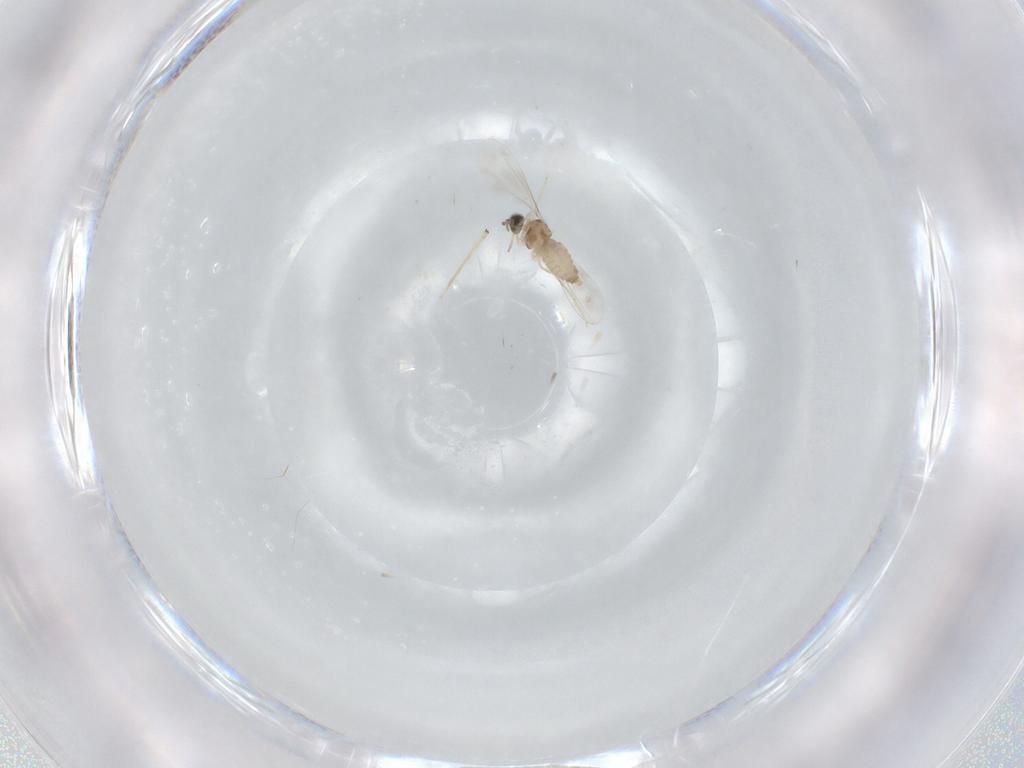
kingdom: Animalia
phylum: Arthropoda
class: Insecta
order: Diptera
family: Cecidomyiidae
